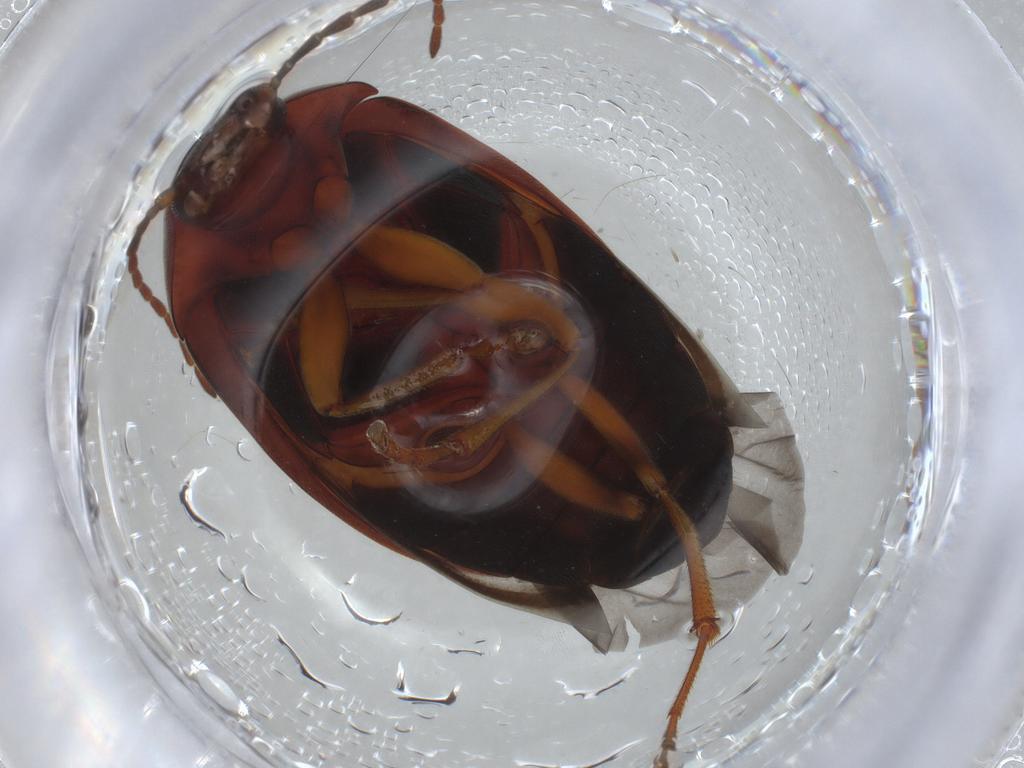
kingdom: Animalia
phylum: Arthropoda
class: Insecta
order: Coleoptera
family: Chrysomelidae
